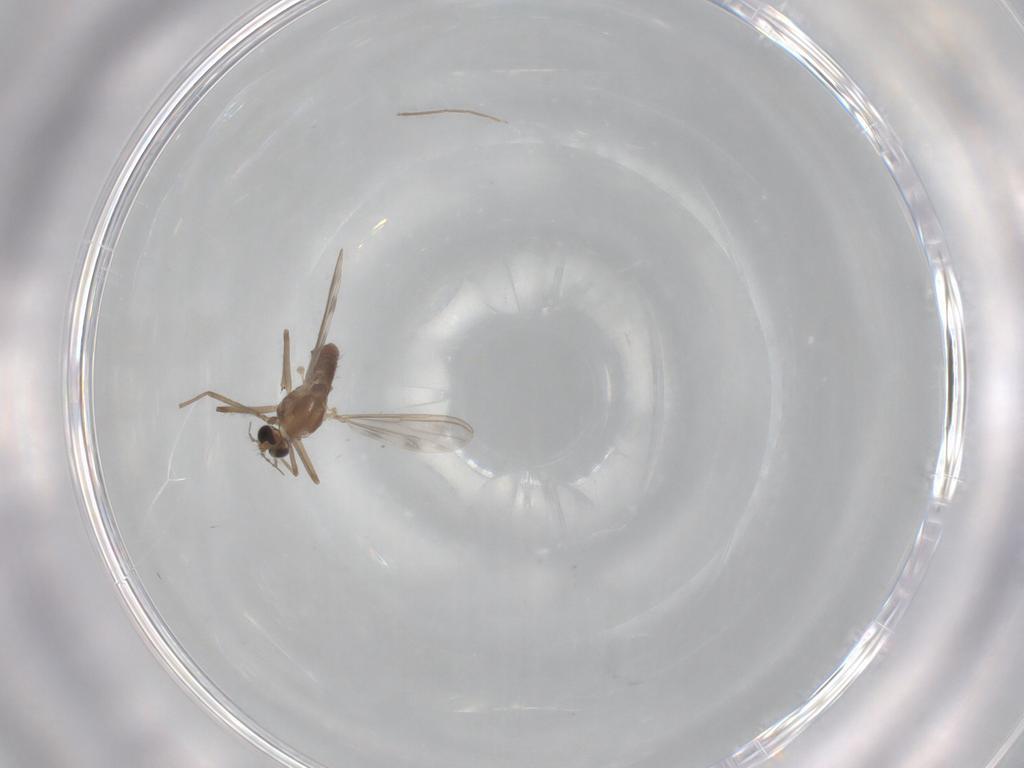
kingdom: Animalia
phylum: Arthropoda
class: Insecta
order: Diptera
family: Chironomidae
